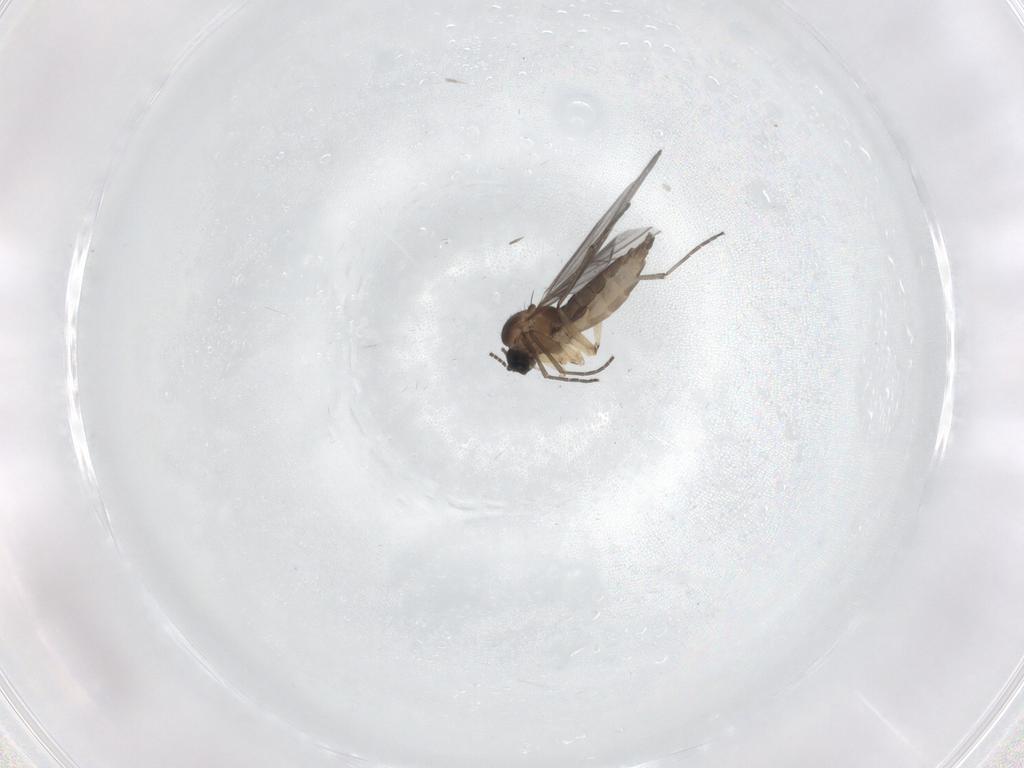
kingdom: Animalia
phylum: Arthropoda
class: Insecta
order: Diptera
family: Sciaridae
